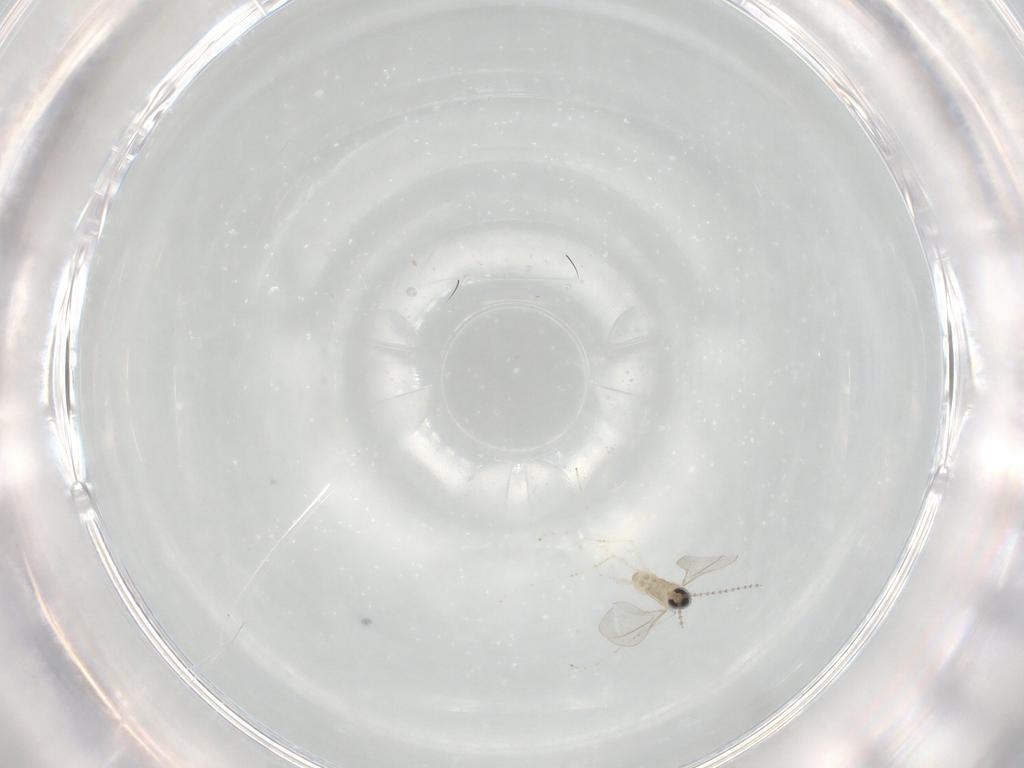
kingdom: Animalia
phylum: Arthropoda
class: Insecta
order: Diptera
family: Cecidomyiidae
